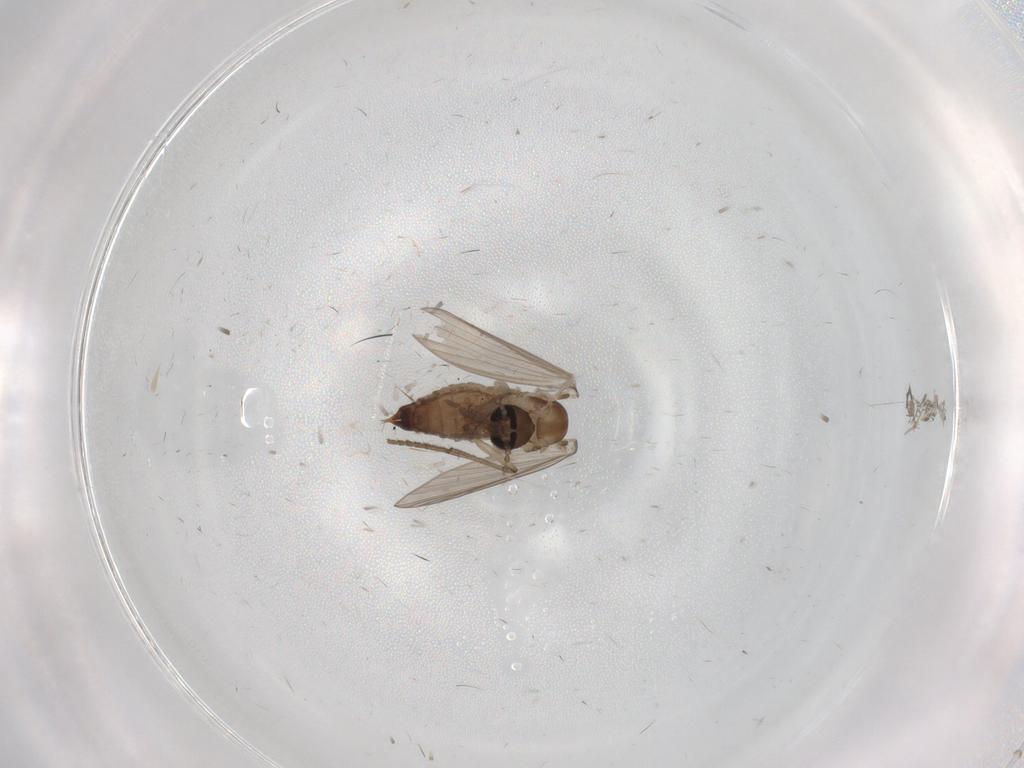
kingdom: Animalia
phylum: Arthropoda
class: Insecta
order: Diptera
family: Psychodidae
